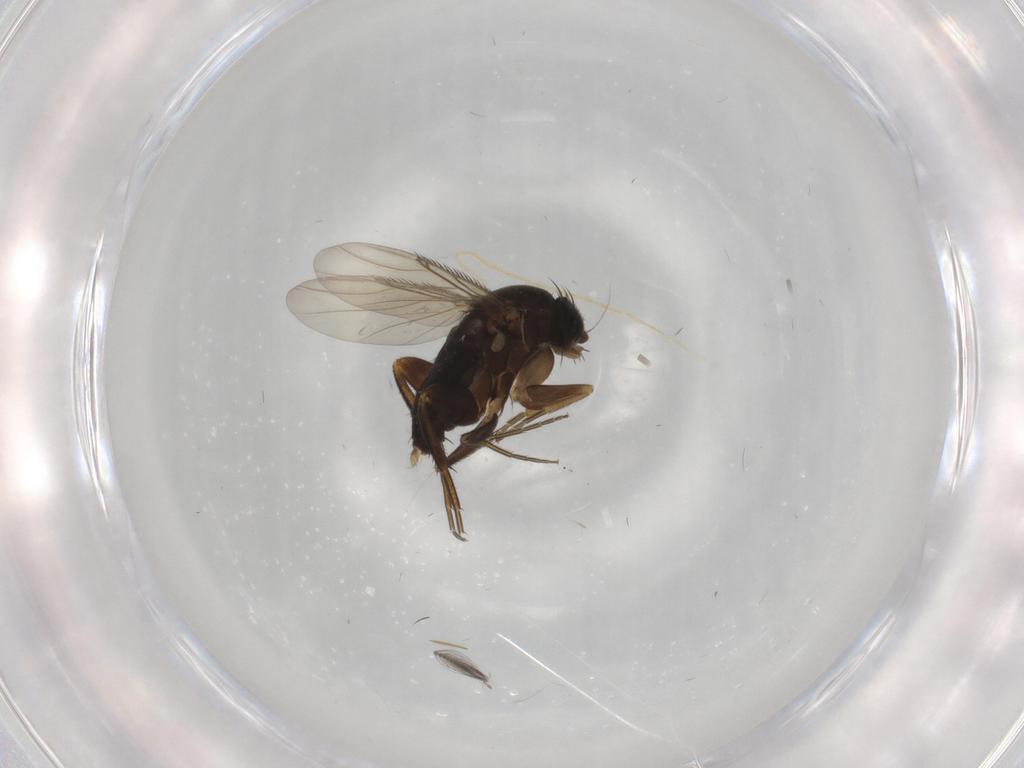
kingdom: Animalia
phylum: Arthropoda
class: Insecta
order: Diptera
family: Phoridae
